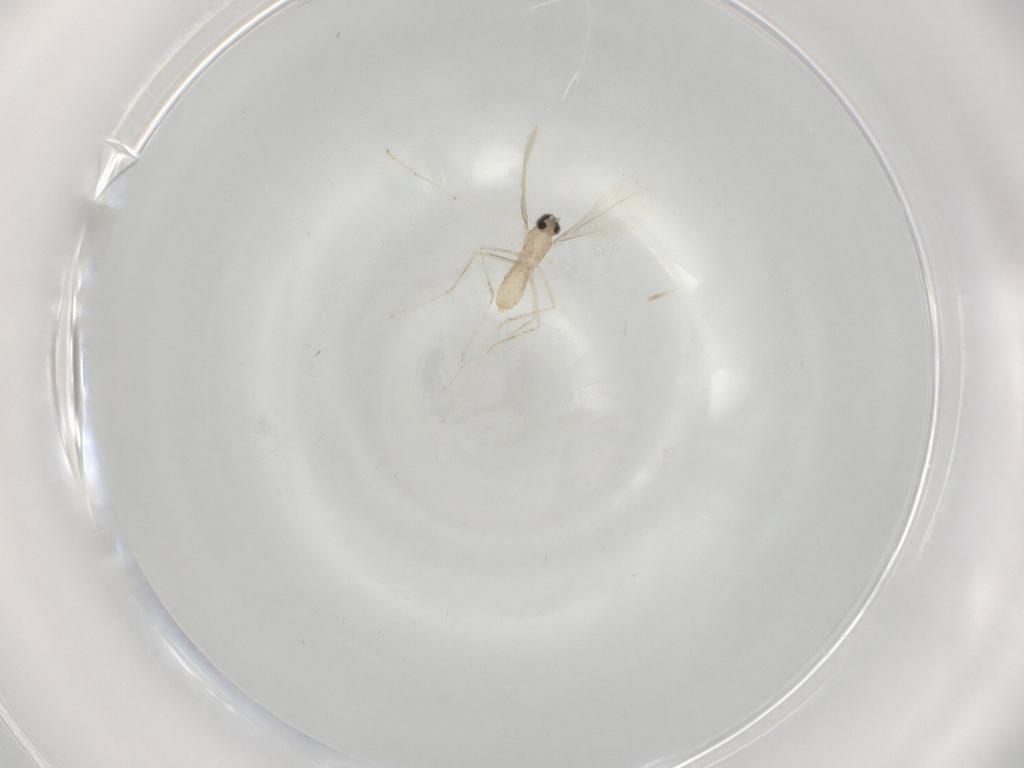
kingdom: Animalia
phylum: Arthropoda
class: Insecta
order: Diptera
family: Cecidomyiidae
